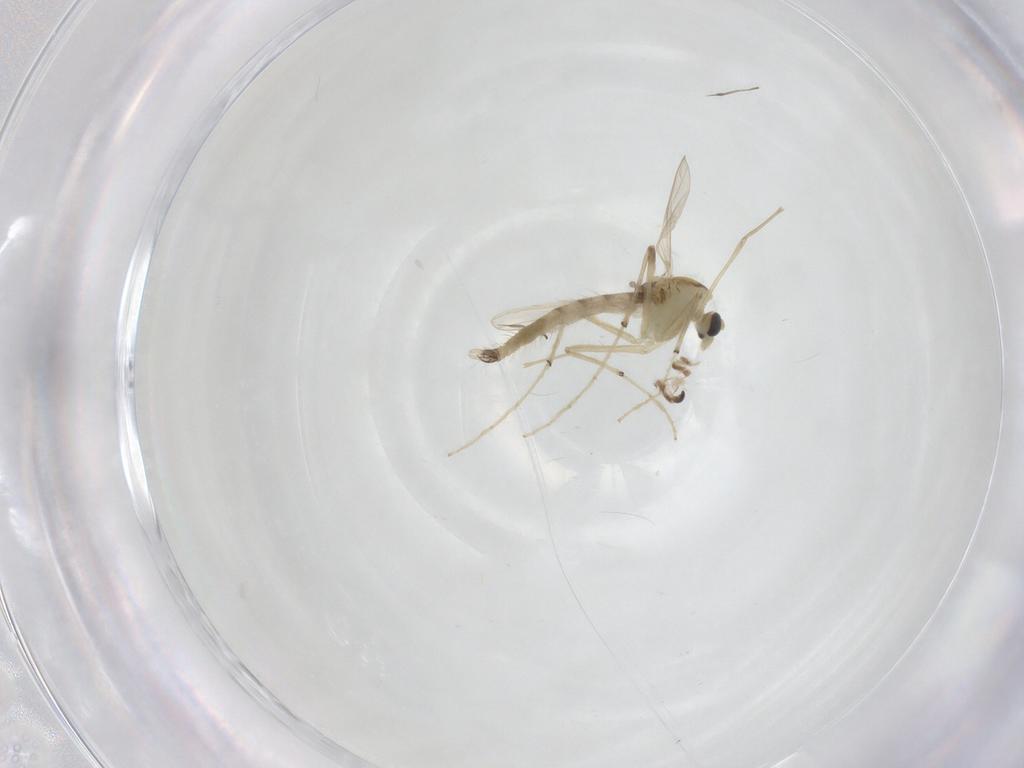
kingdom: Animalia
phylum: Arthropoda
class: Insecta
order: Diptera
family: Chironomidae
